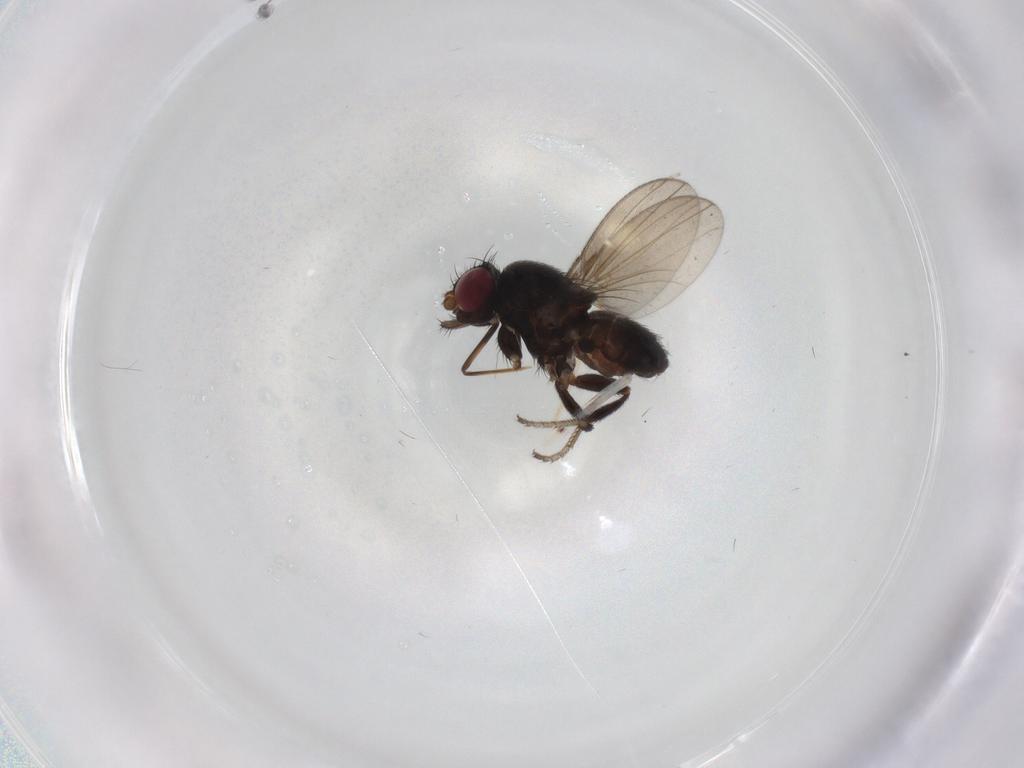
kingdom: Animalia
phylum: Arthropoda
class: Insecta
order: Diptera
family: Milichiidae
